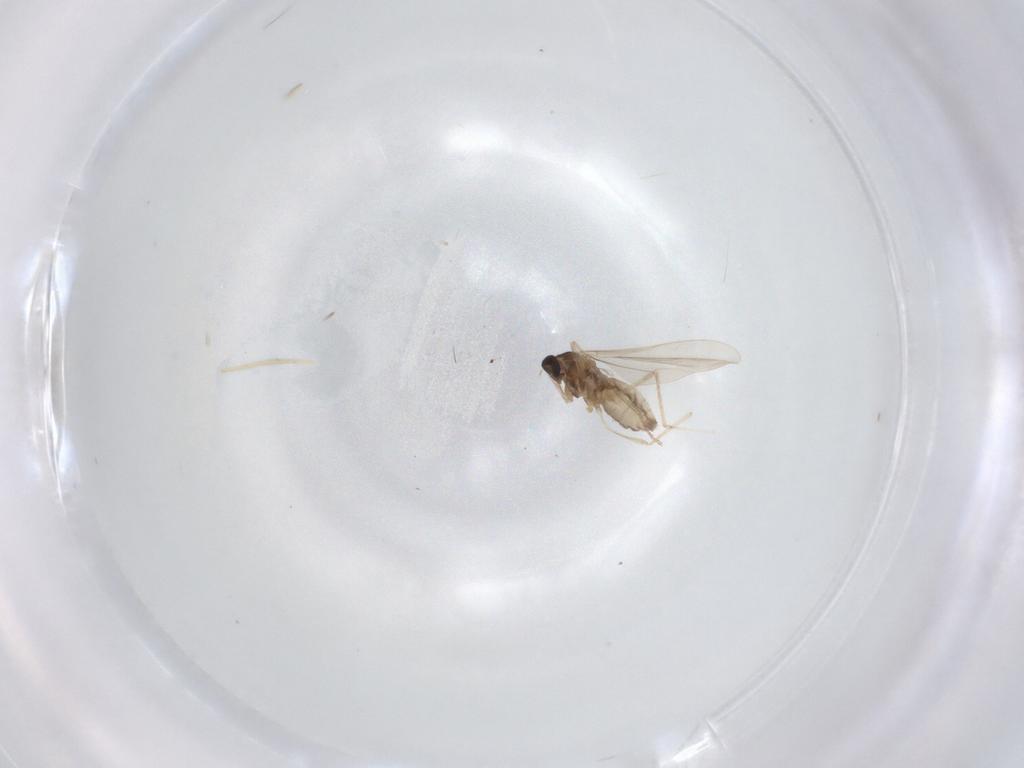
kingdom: Animalia
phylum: Arthropoda
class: Insecta
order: Diptera
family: Cecidomyiidae
